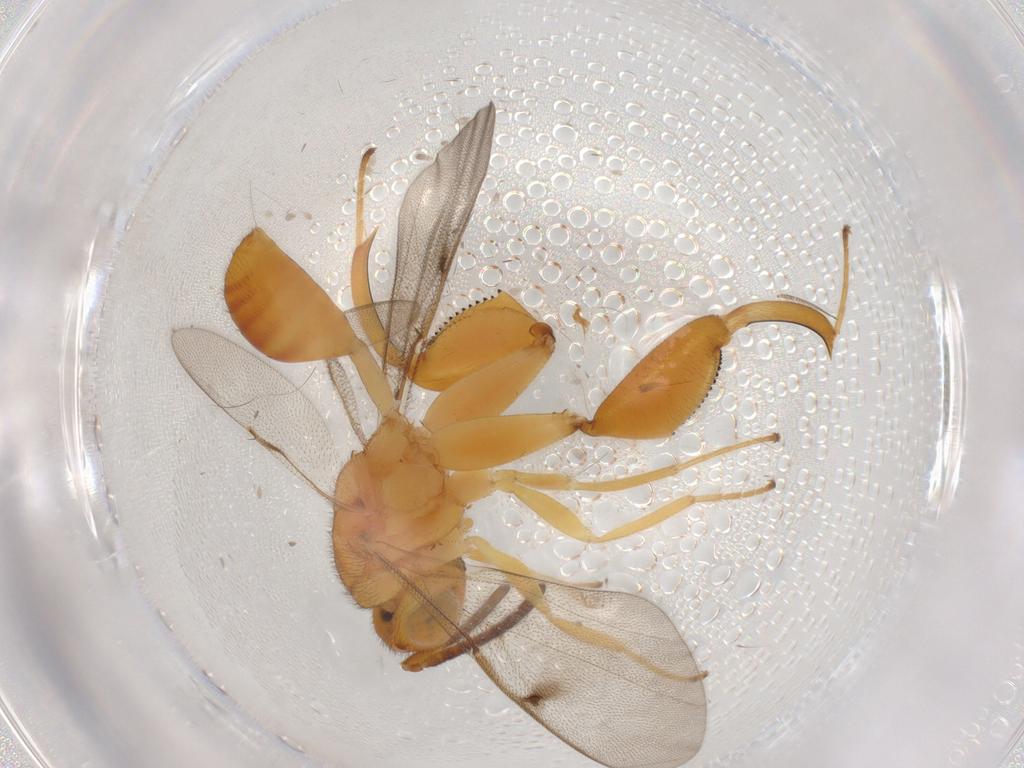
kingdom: Animalia
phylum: Arthropoda
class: Insecta
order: Hymenoptera
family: Chalcididae
